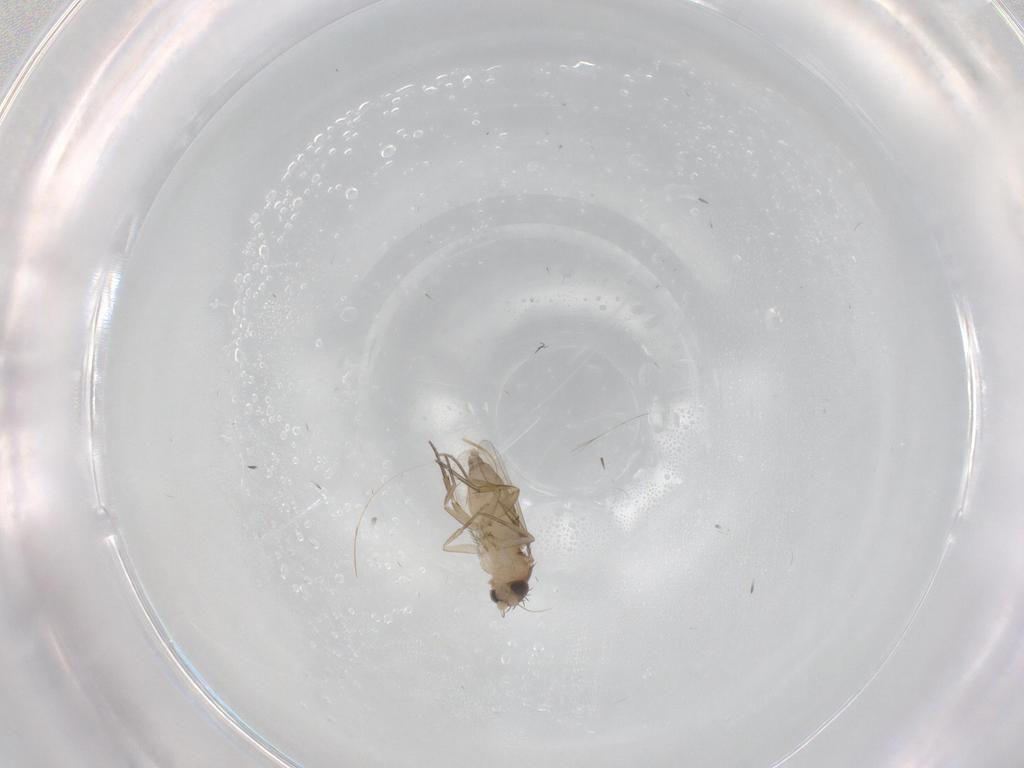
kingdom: Animalia
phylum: Arthropoda
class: Insecta
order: Diptera
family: Phoridae
